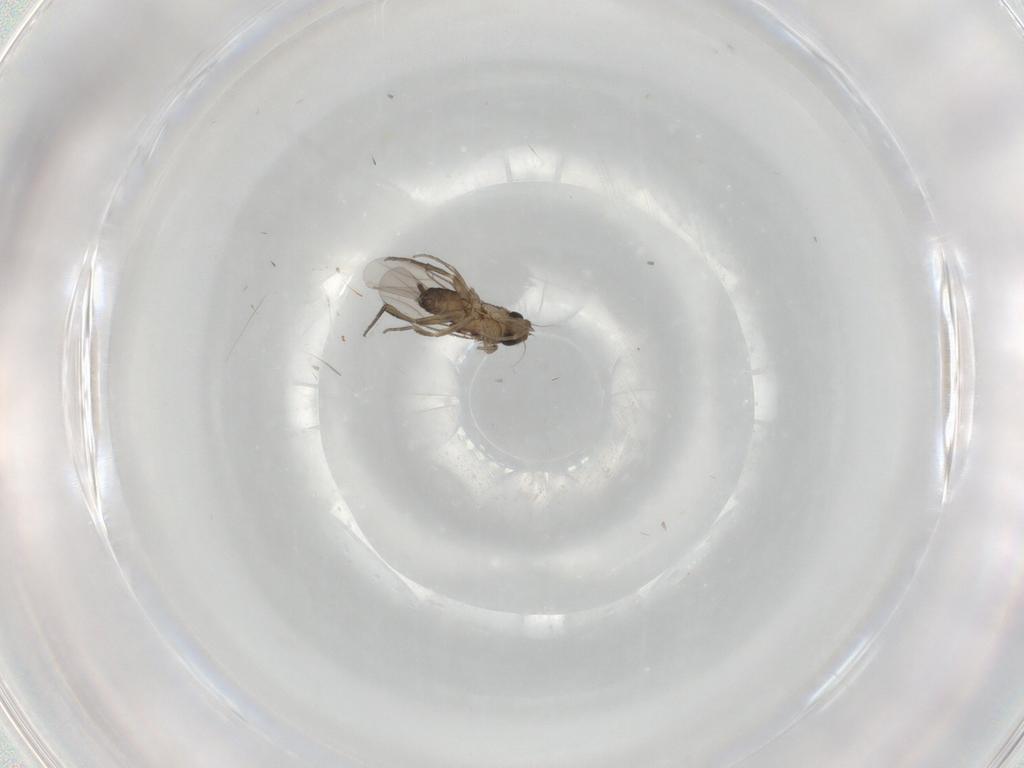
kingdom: Animalia
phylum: Arthropoda
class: Insecta
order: Diptera
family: Phoridae
